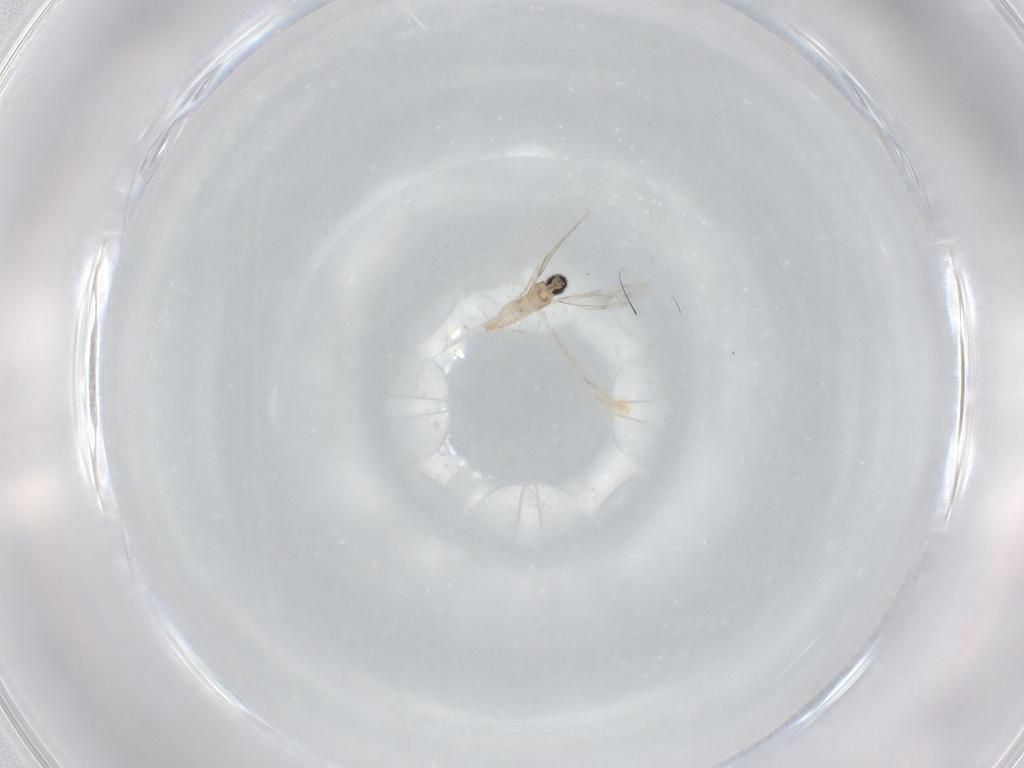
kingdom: Animalia
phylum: Arthropoda
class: Insecta
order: Diptera
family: Cecidomyiidae
